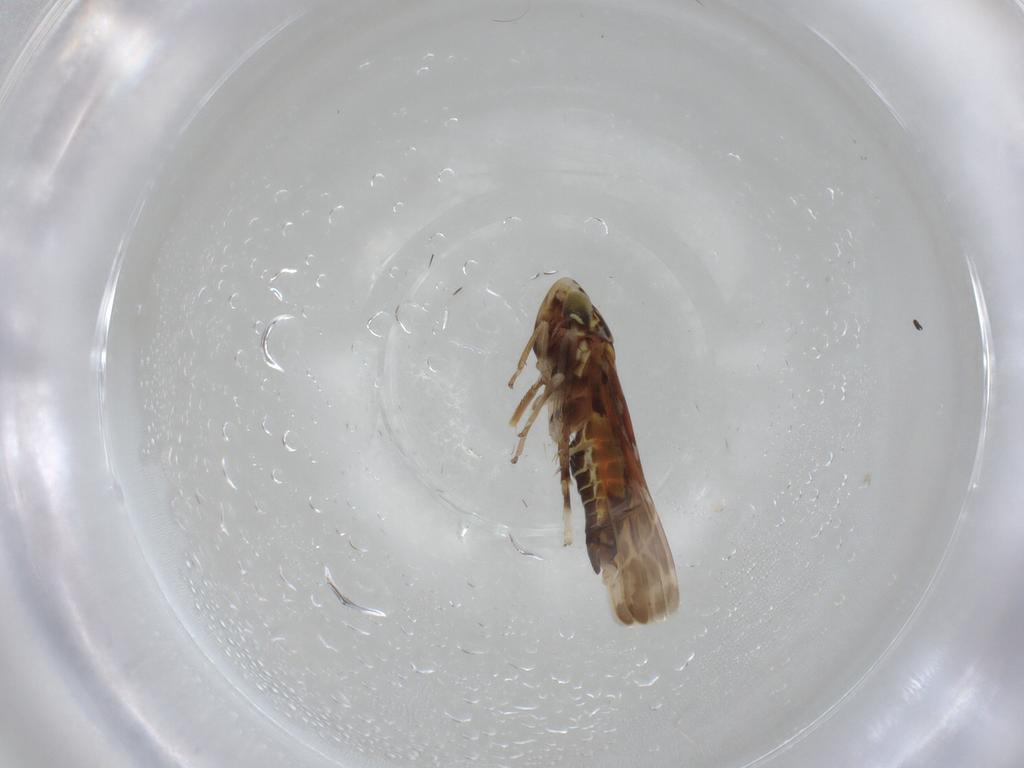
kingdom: Animalia
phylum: Arthropoda
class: Insecta
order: Hemiptera
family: Cicadellidae
